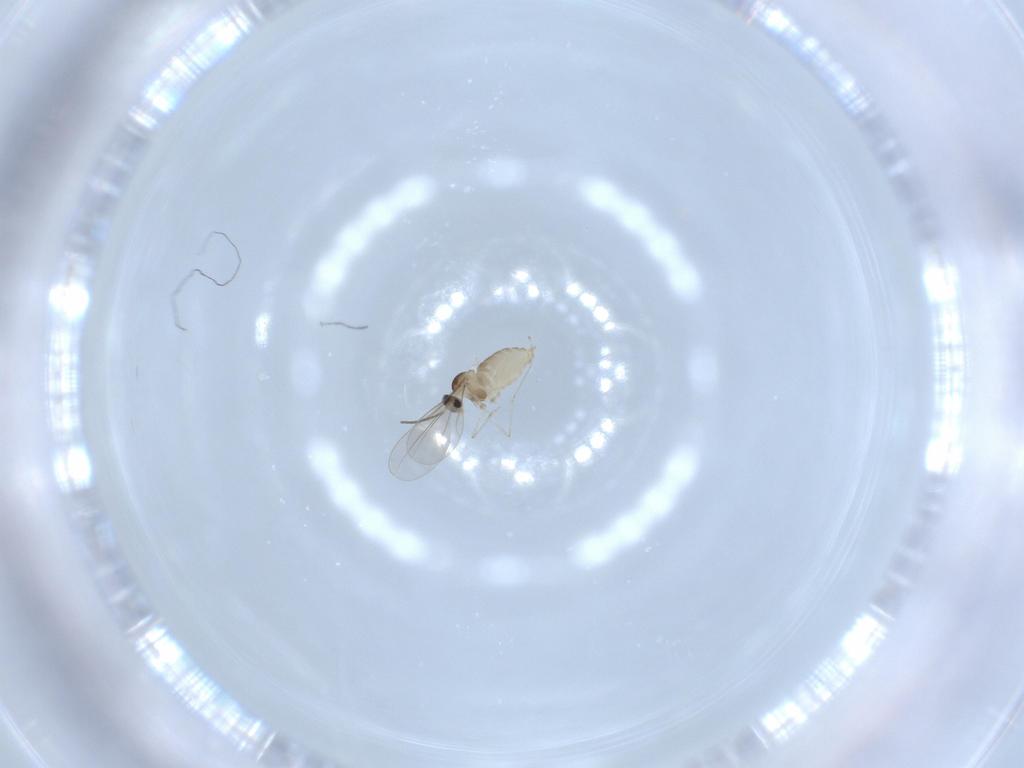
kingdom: Animalia
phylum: Arthropoda
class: Insecta
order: Diptera
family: Cecidomyiidae
